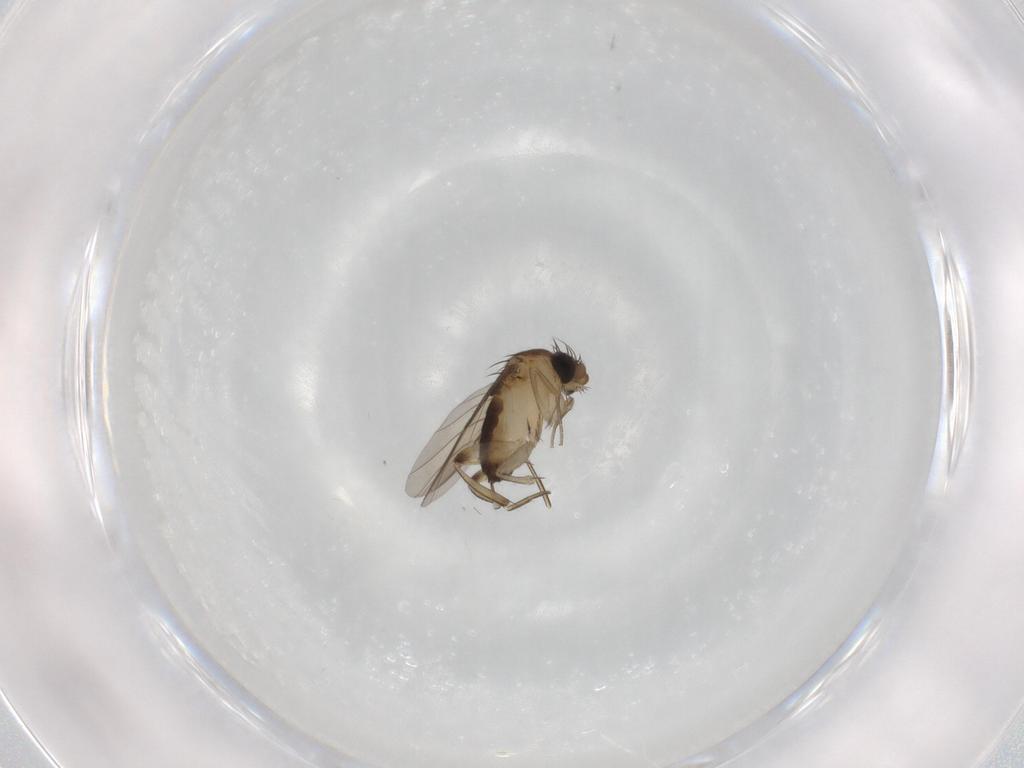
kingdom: Animalia
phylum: Arthropoda
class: Insecta
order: Diptera
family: Phoridae
